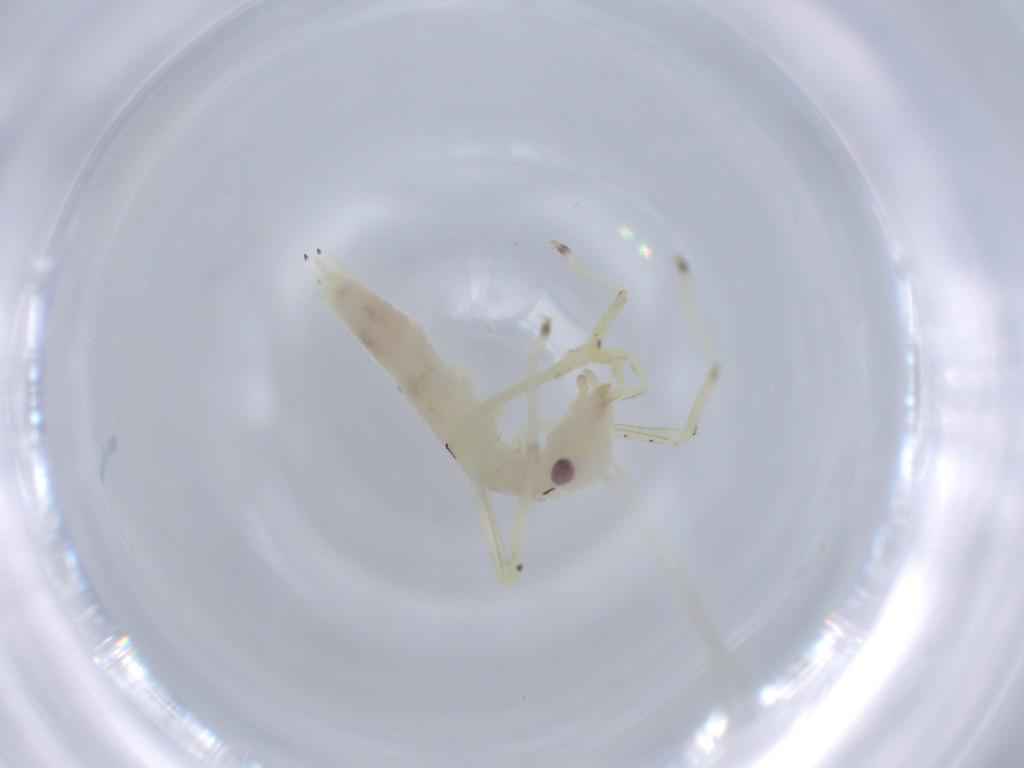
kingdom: Animalia
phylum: Arthropoda
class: Insecta
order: Orthoptera
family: Oecanthidae
